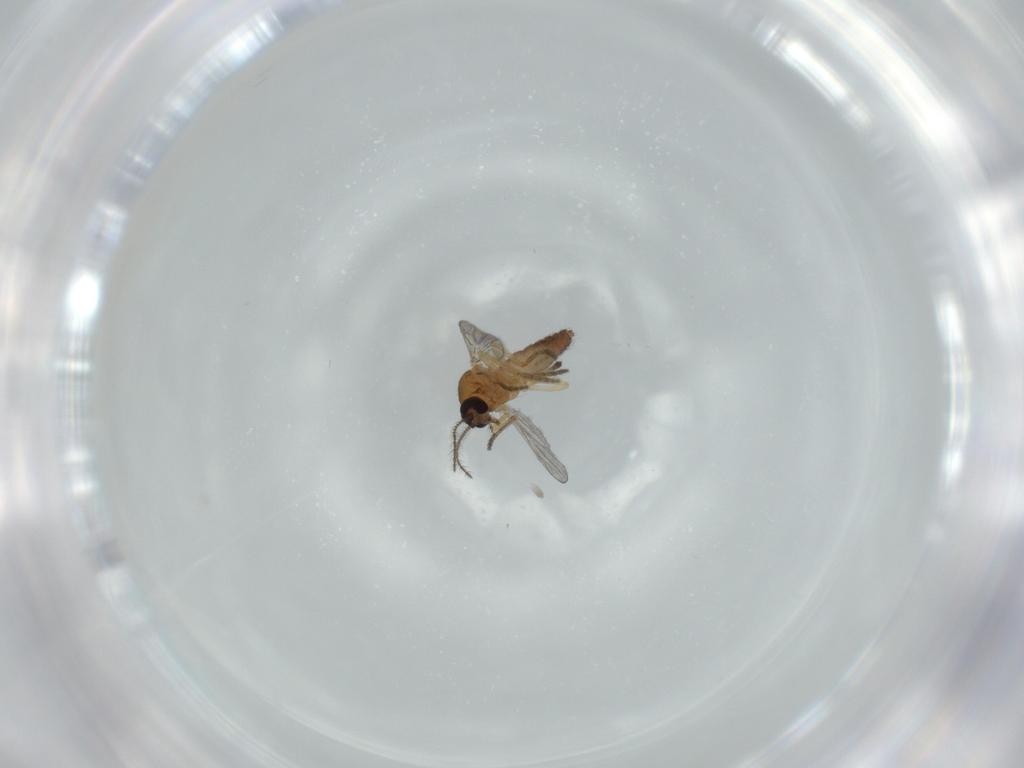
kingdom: Animalia
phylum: Arthropoda
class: Insecta
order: Diptera
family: Ceratopogonidae
